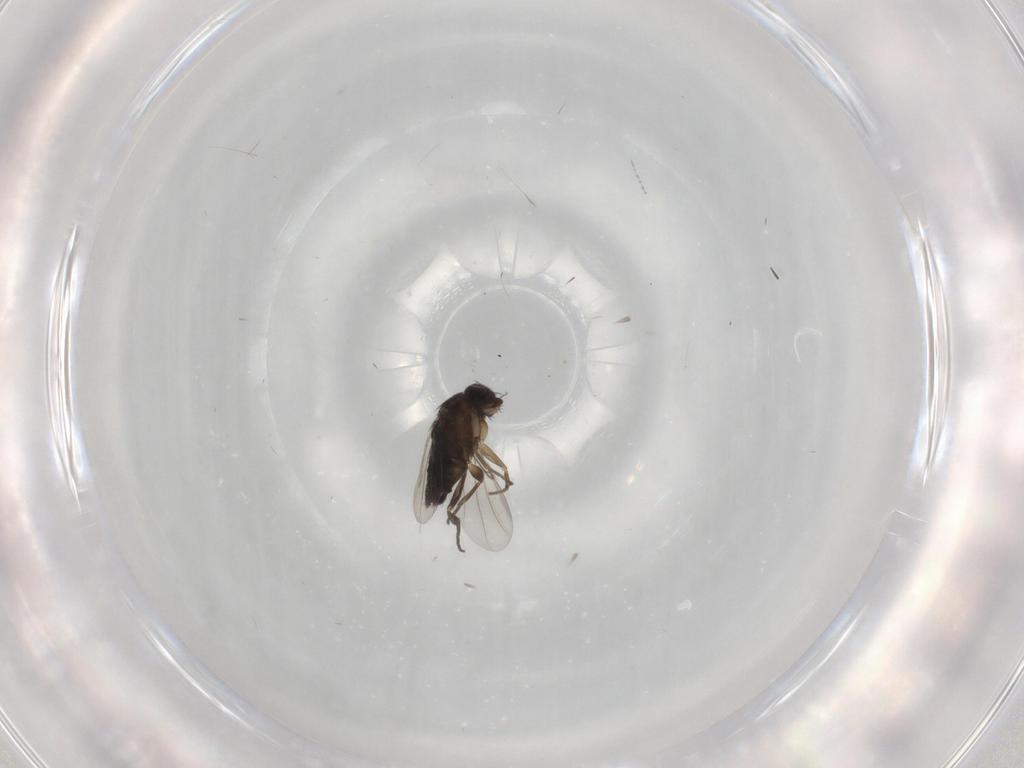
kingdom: Animalia
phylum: Arthropoda
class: Insecta
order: Diptera
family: Phoridae
